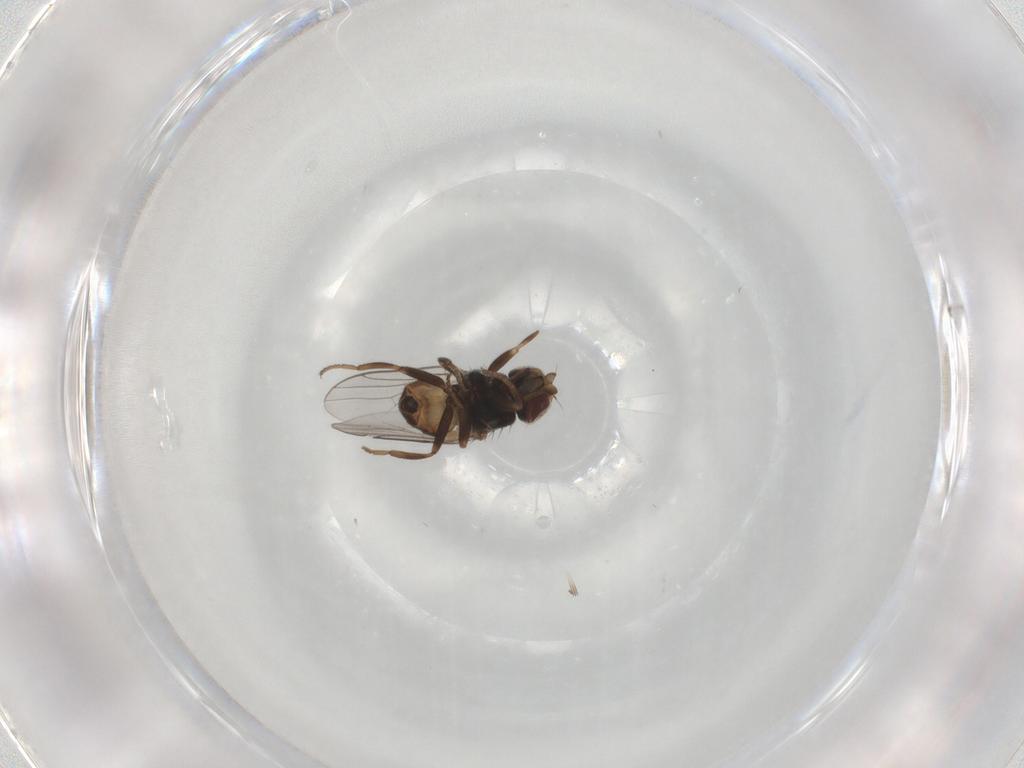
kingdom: Animalia
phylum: Arthropoda
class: Insecta
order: Diptera
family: Chloropidae
